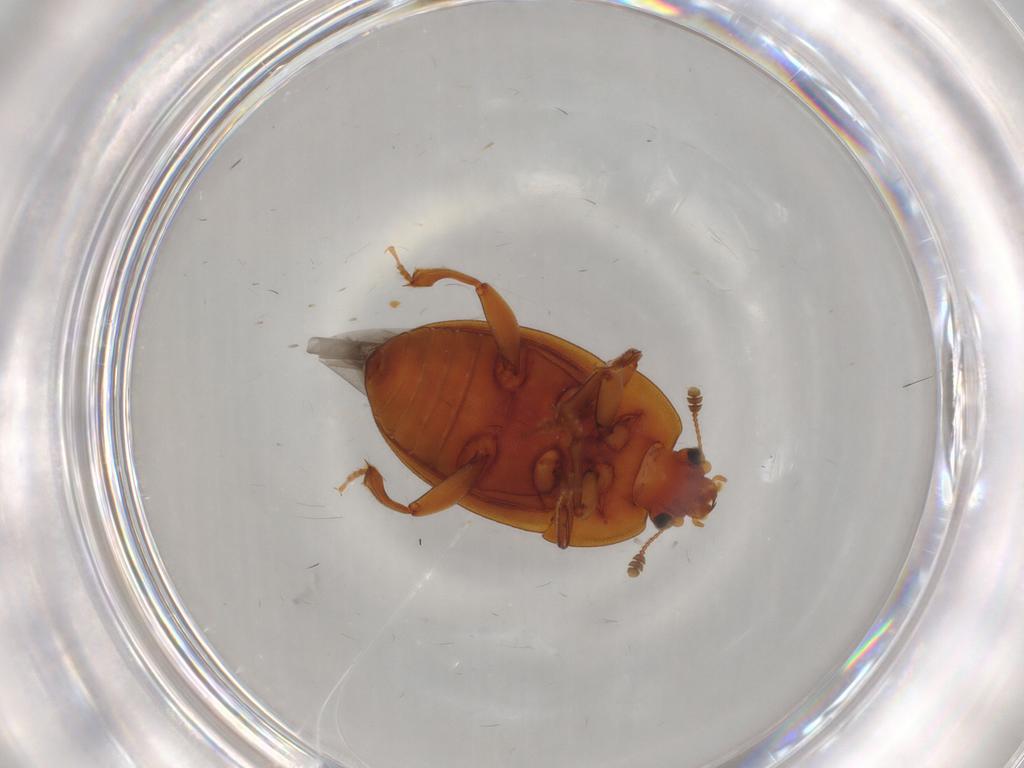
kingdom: Animalia
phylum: Arthropoda
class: Insecta
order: Coleoptera
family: Nitidulidae
